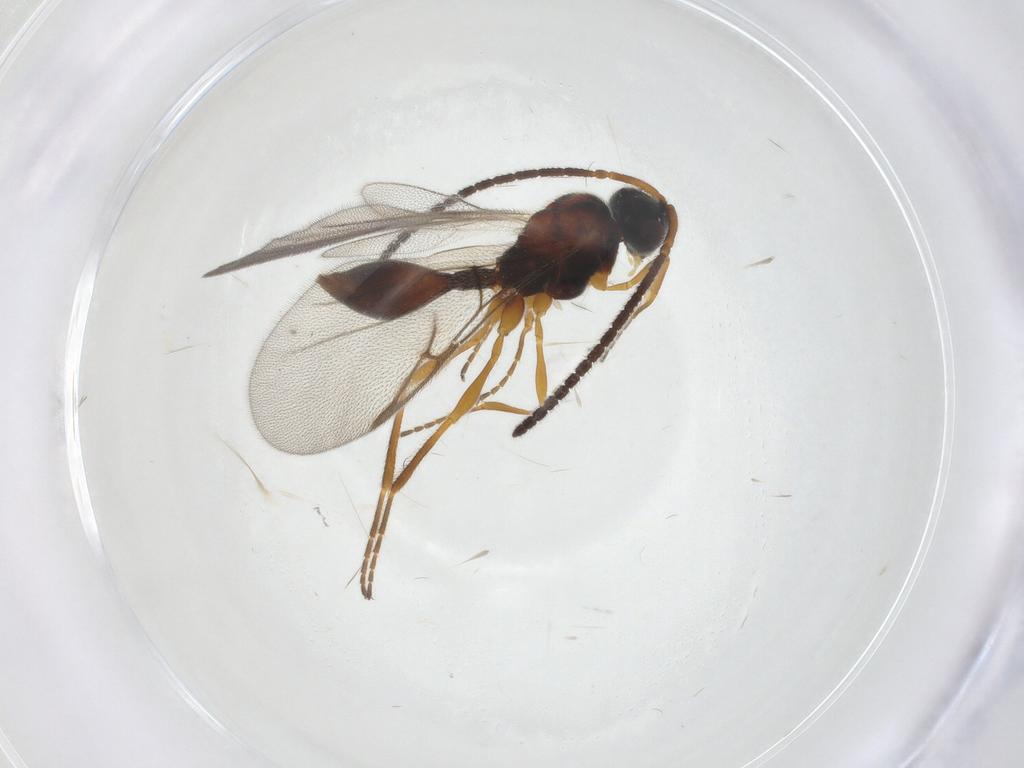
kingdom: Animalia
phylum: Arthropoda
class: Insecta
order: Hymenoptera
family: Diapriidae
